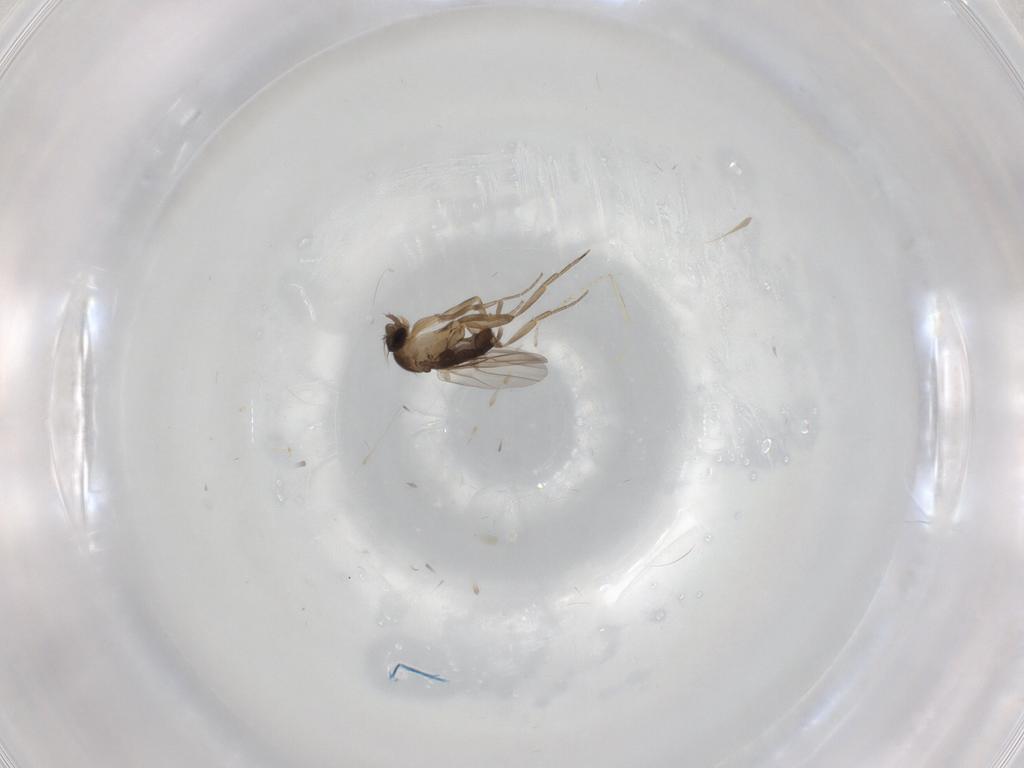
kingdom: Animalia
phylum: Arthropoda
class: Insecta
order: Diptera
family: Phoridae
